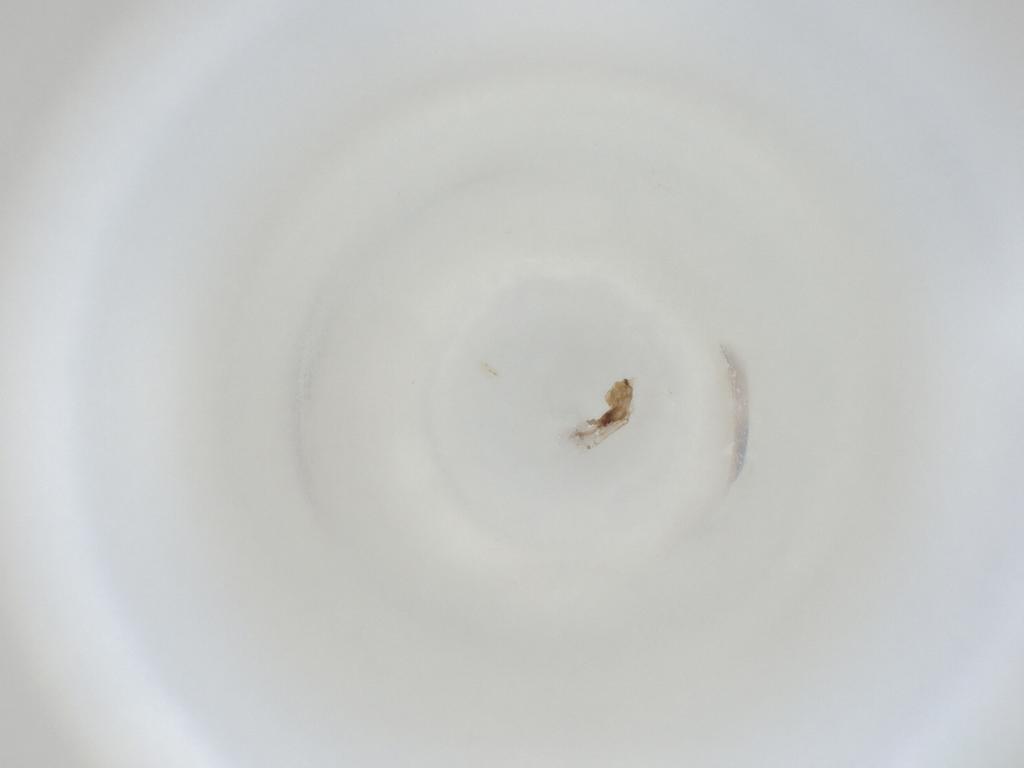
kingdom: Animalia
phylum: Arthropoda
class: Insecta
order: Diptera
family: Cecidomyiidae
